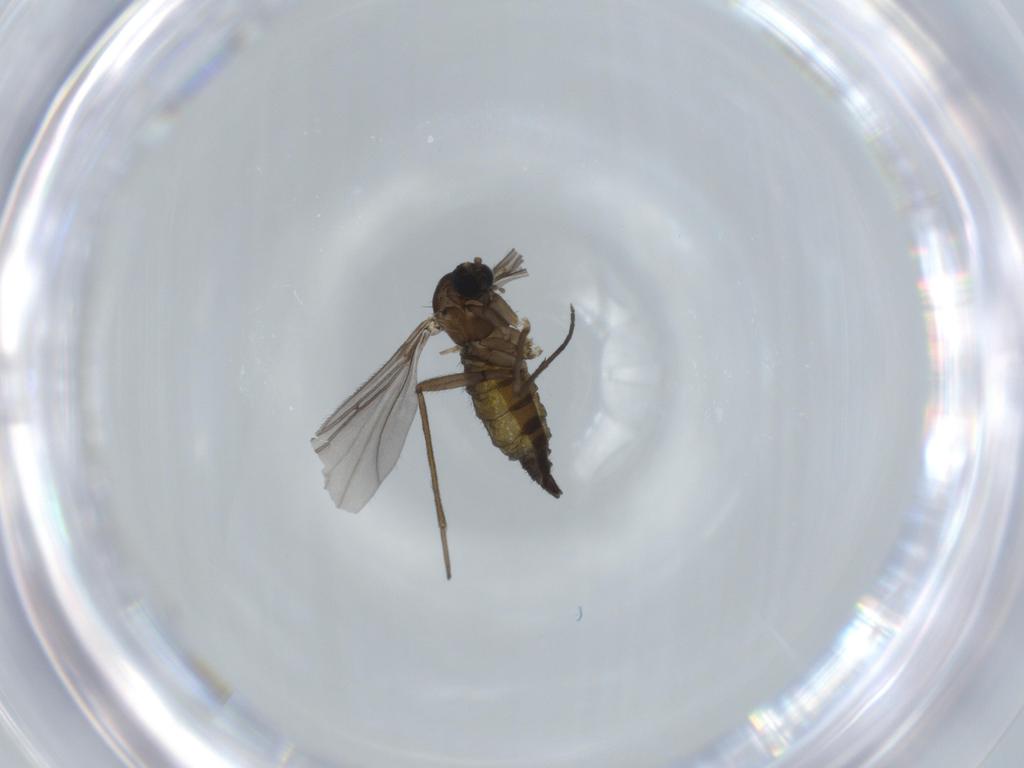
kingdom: Animalia
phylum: Arthropoda
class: Insecta
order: Diptera
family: Sciaridae
